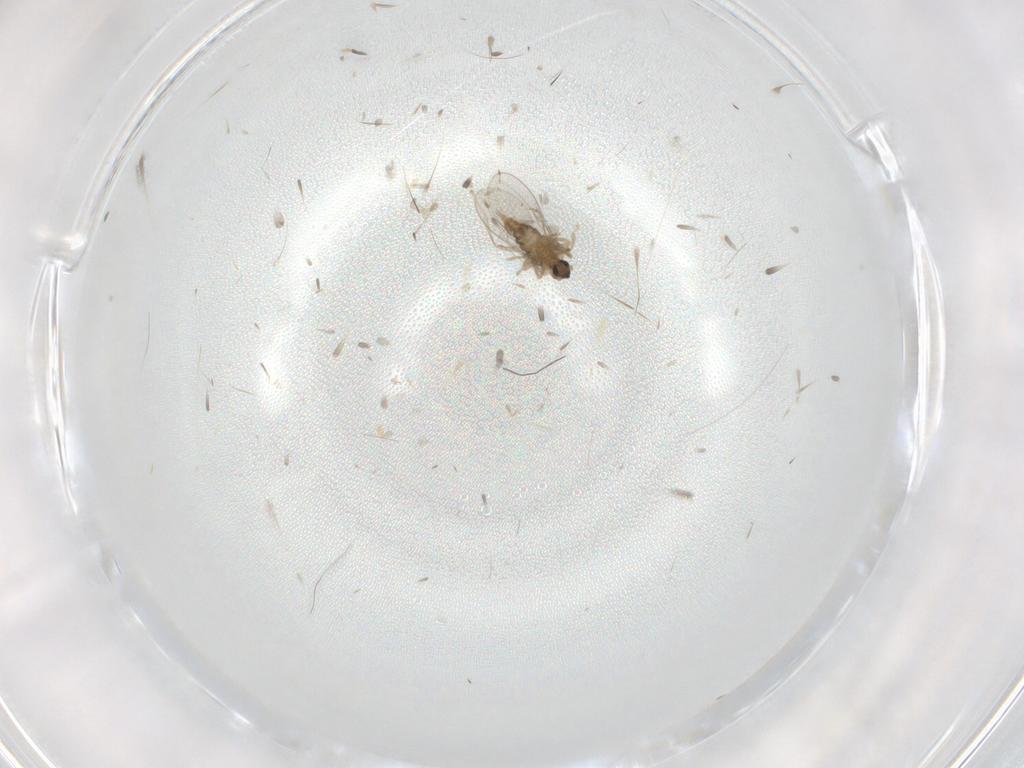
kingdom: Animalia
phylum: Arthropoda
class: Insecta
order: Diptera
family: Cecidomyiidae
